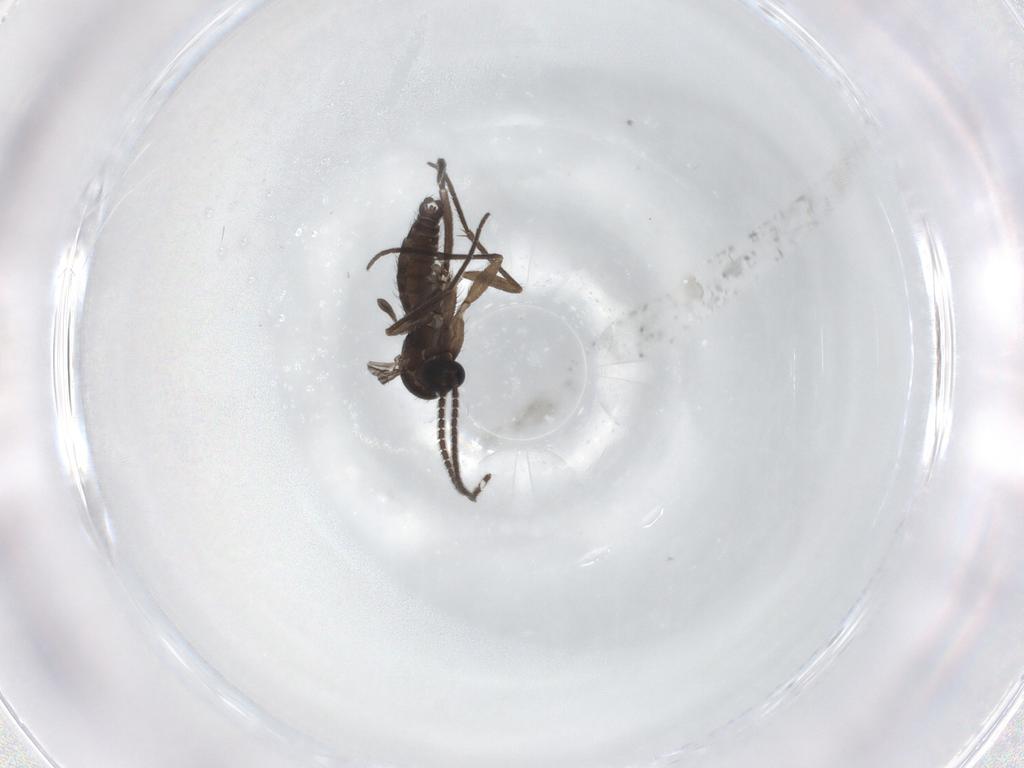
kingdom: Animalia
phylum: Arthropoda
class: Insecta
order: Diptera
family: Sciaridae
